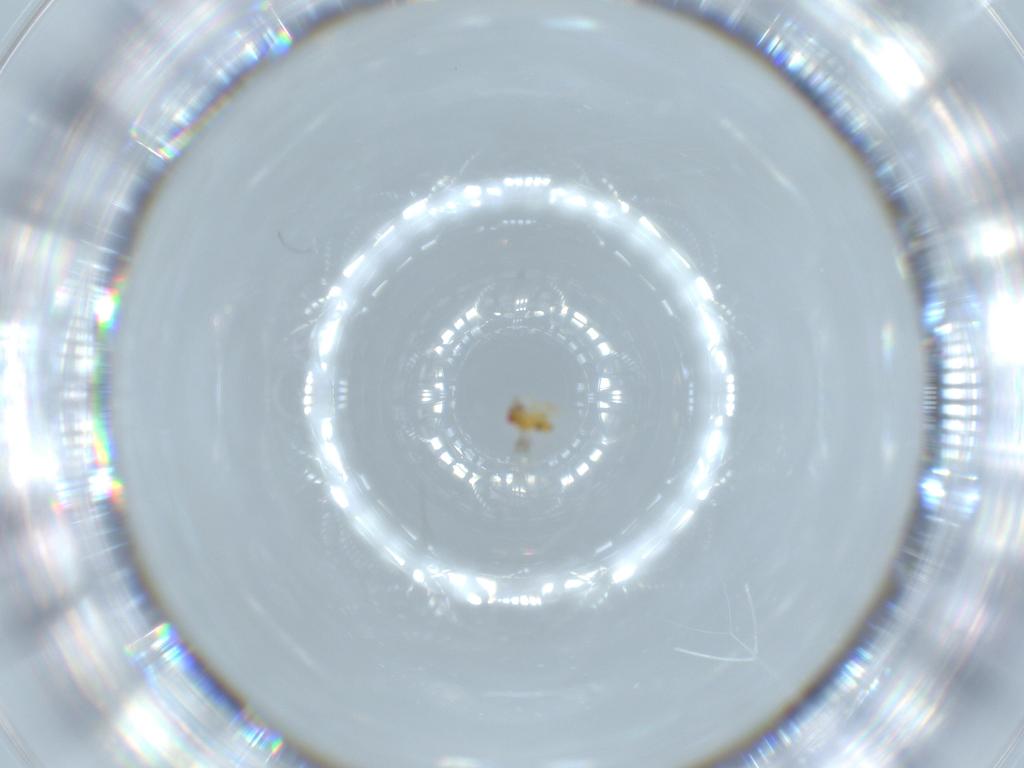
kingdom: Animalia
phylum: Arthropoda
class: Insecta
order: Hymenoptera
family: Trichogrammatidae
